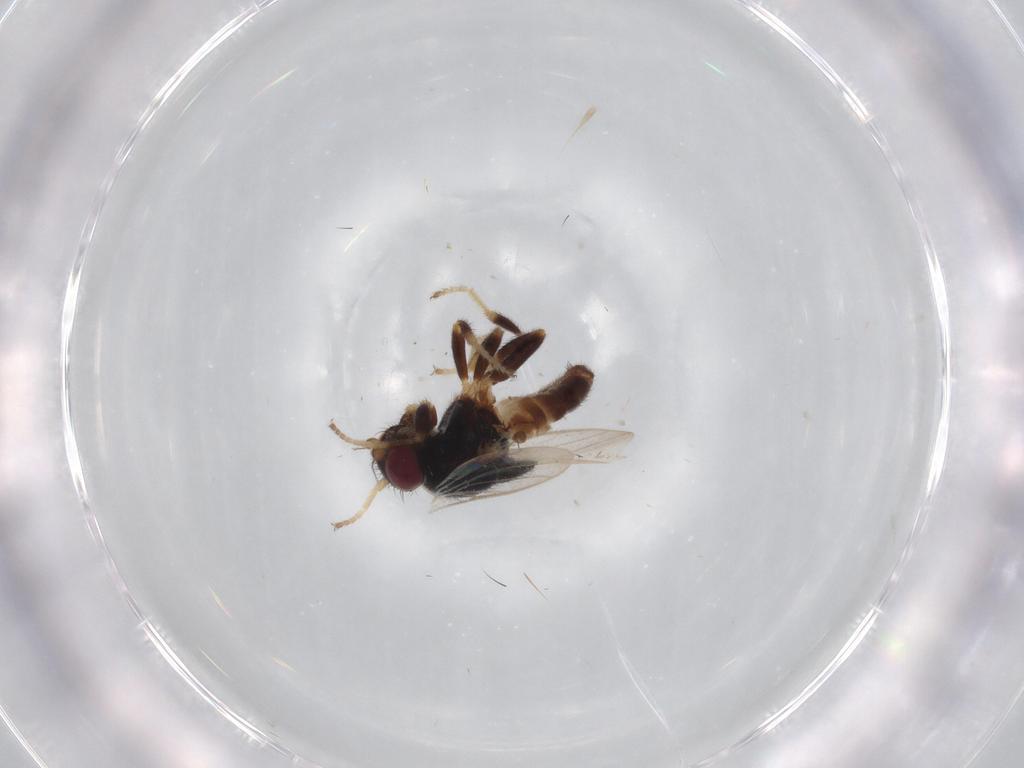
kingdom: Animalia
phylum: Arthropoda
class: Insecta
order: Diptera
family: Chloropidae
